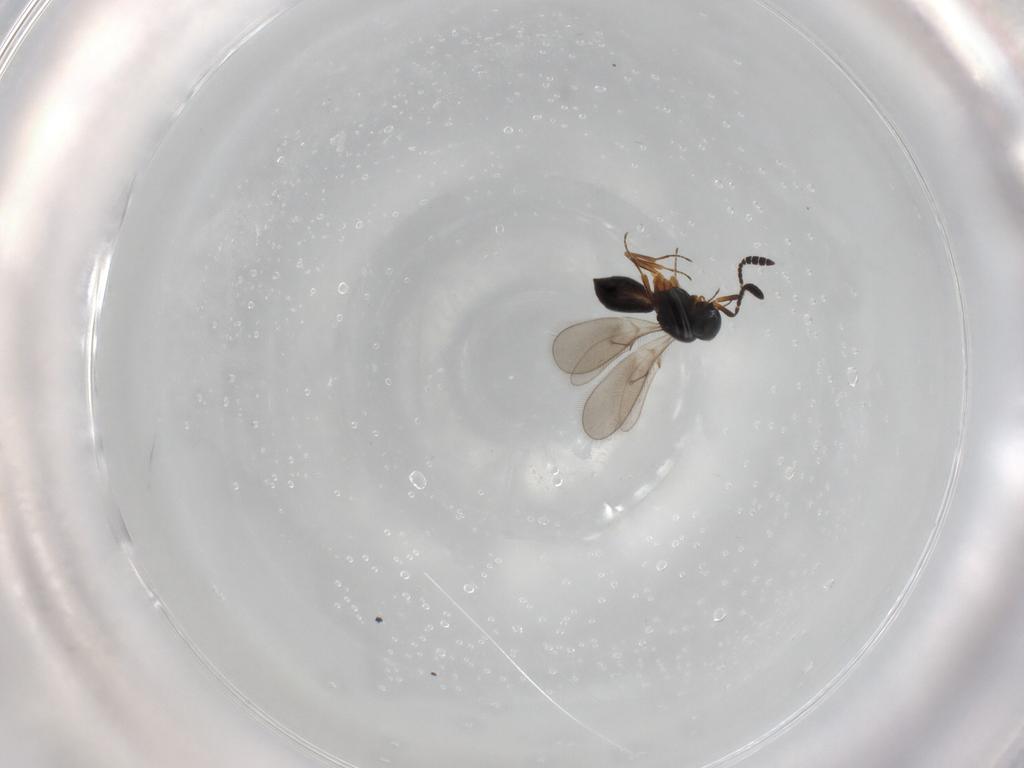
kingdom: Animalia
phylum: Arthropoda
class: Insecta
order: Hymenoptera
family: Scelionidae
